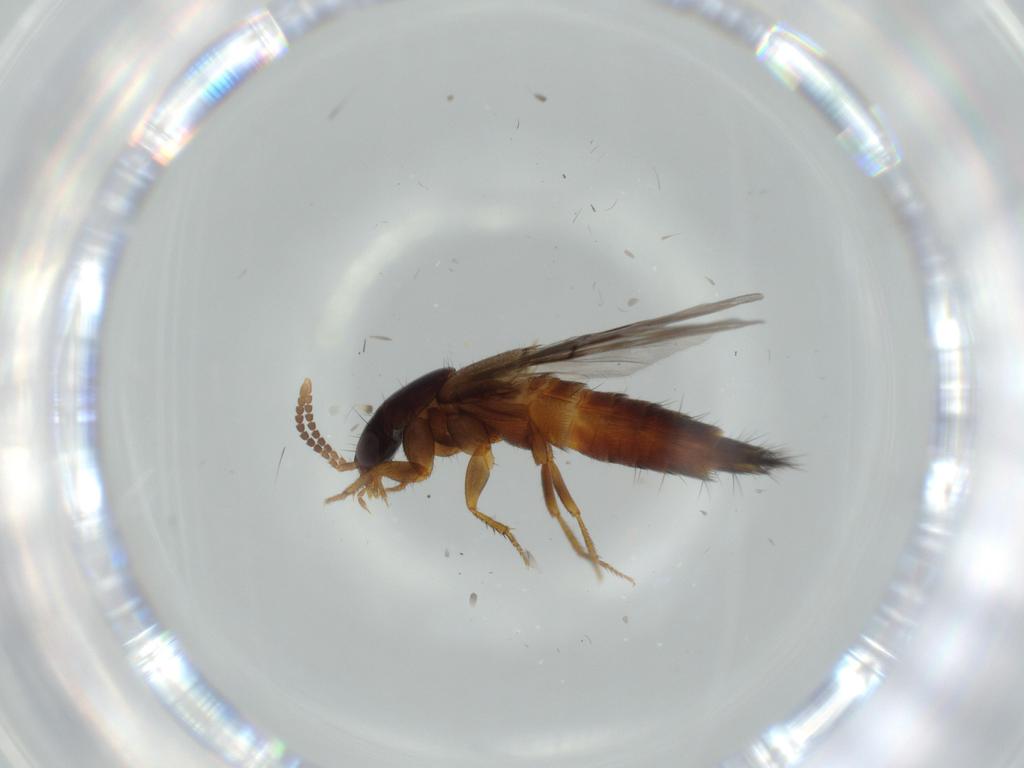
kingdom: Animalia
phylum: Arthropoda
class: Insecta
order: Coleoptera
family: Staphylinidae
